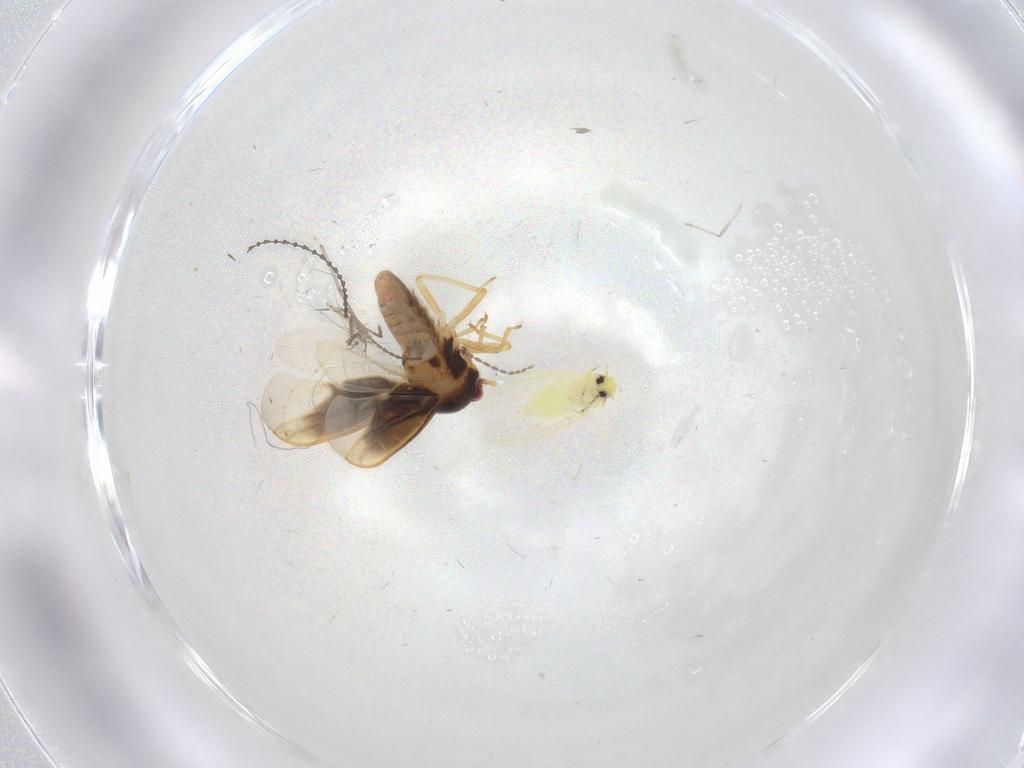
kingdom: Animalia
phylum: Arthropoda
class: Insecta
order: Hemiptera
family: Schizopteridae
